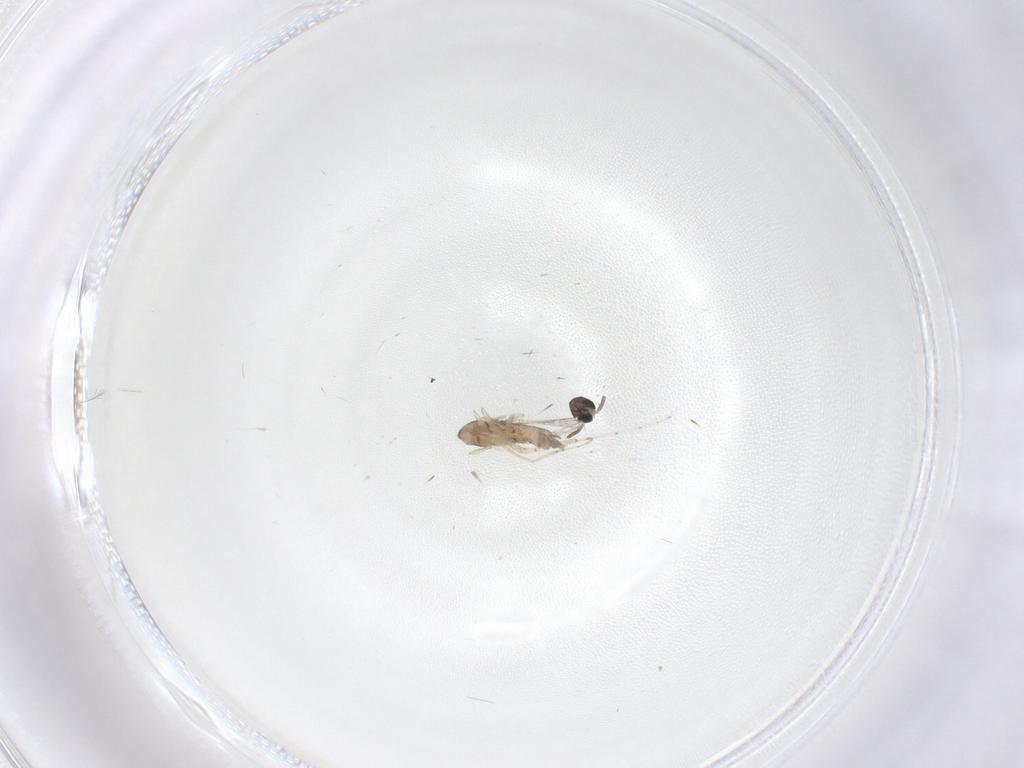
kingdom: Animalia
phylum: Arthropoda
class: Insecta
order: Diptera
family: Cecidomyiidae
